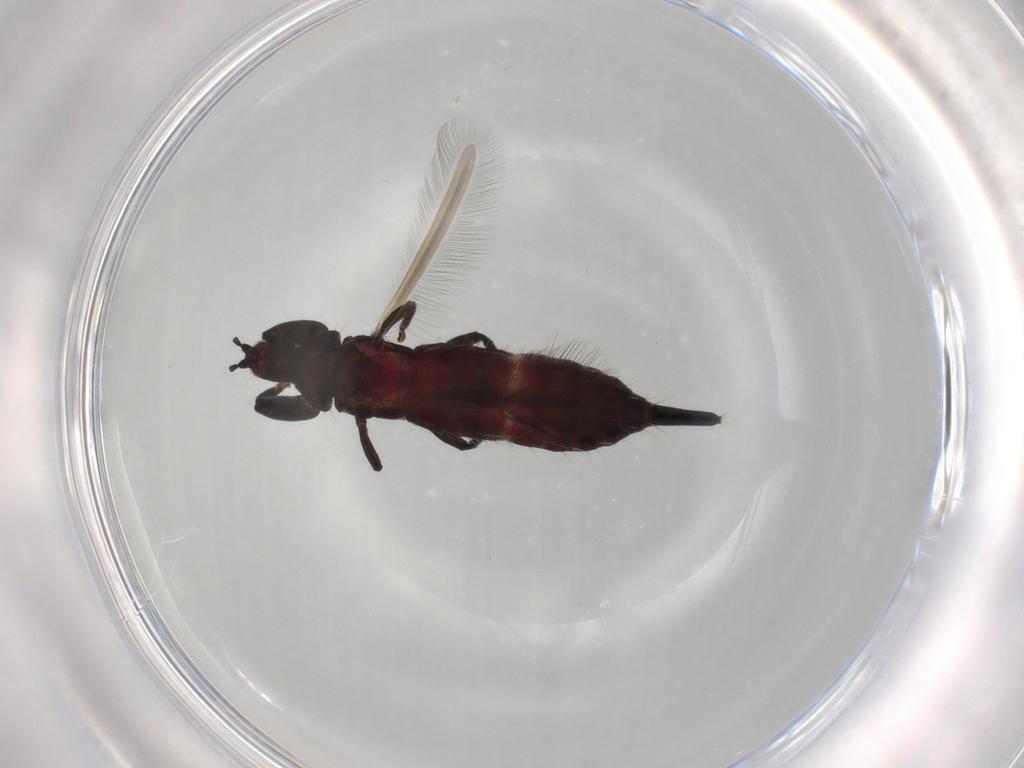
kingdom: Animalia
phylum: Arthropoda
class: Insecta
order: Thysanoptera
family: Phlaeothripidae
